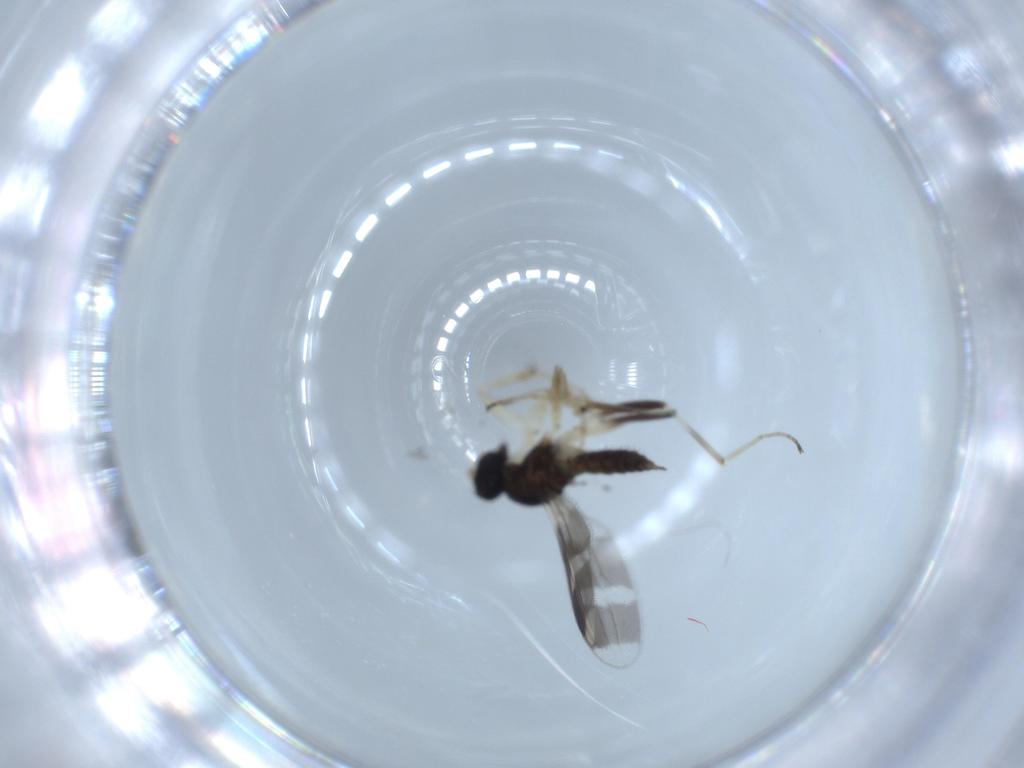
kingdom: Animalia
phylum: Arthropoda
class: Insecta
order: Diptera
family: Hybotidae
